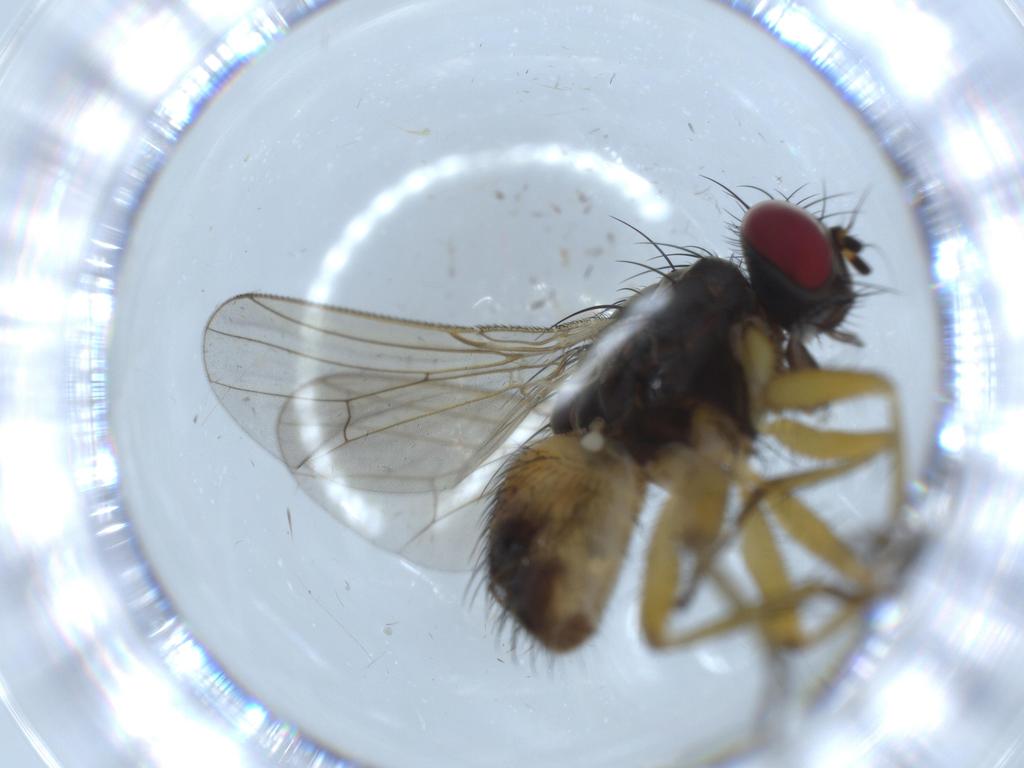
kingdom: Animalia
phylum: Arthropoda
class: Insecta
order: Diptera
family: Muscidae
